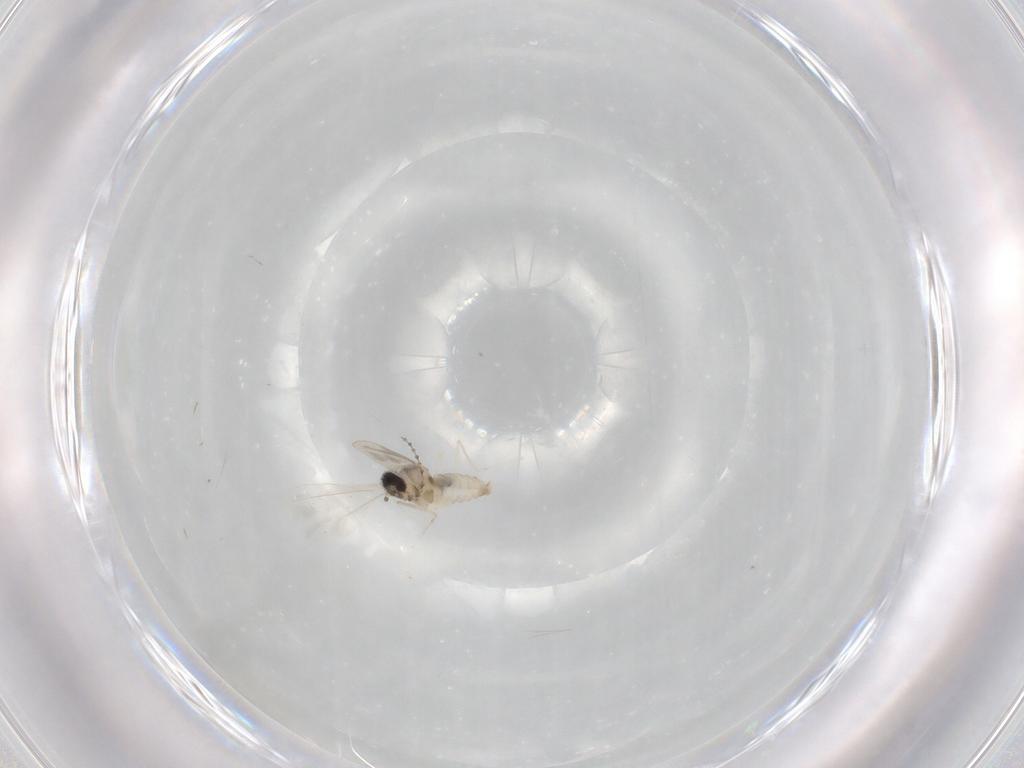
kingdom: Animalia
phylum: Arthropoda
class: Insecta
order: Diptera
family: Cecidomyiidae
